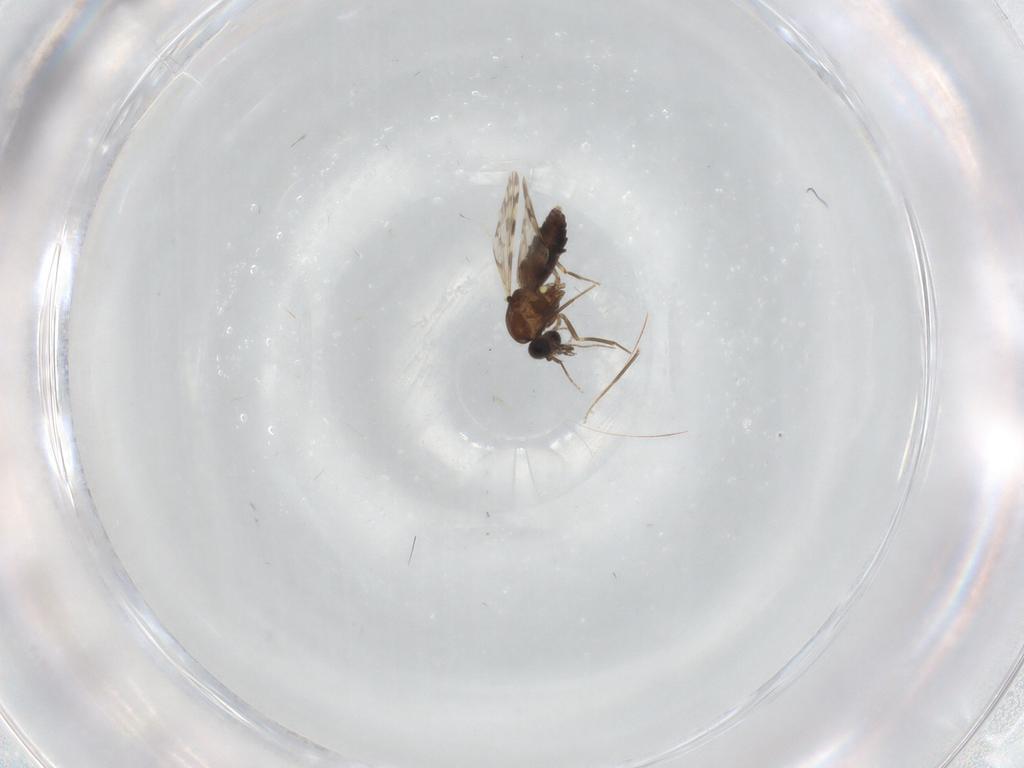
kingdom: Animalia
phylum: Arthropoda
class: Insecta
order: Diptera
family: Ceratopogonidae
